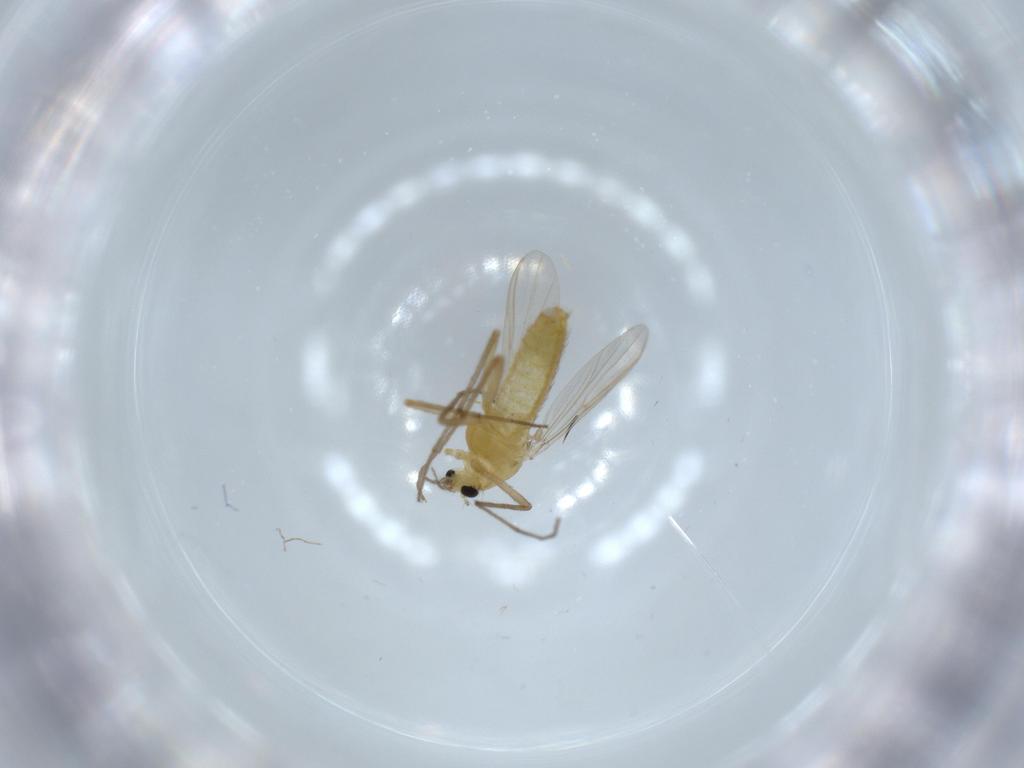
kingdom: Animalia
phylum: Arthropoda
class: Insecta
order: Diptera
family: Chironomidae
